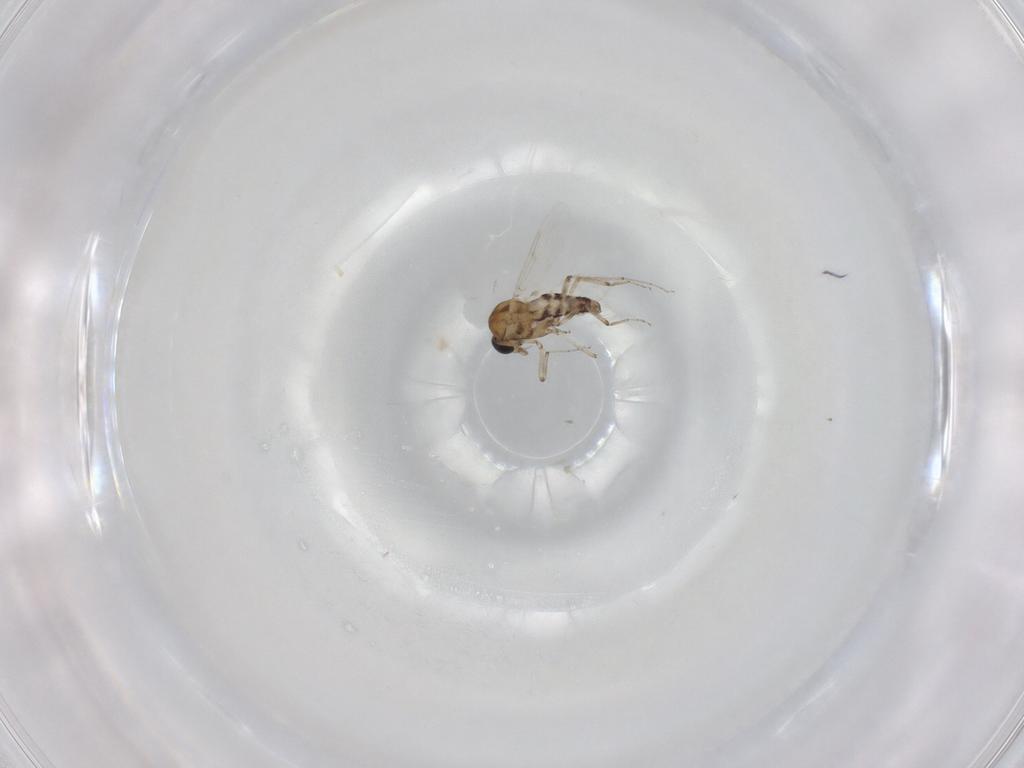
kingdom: Animalia
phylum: Arthropoda
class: Insecta
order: Diptera
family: Ceratopogonidae
